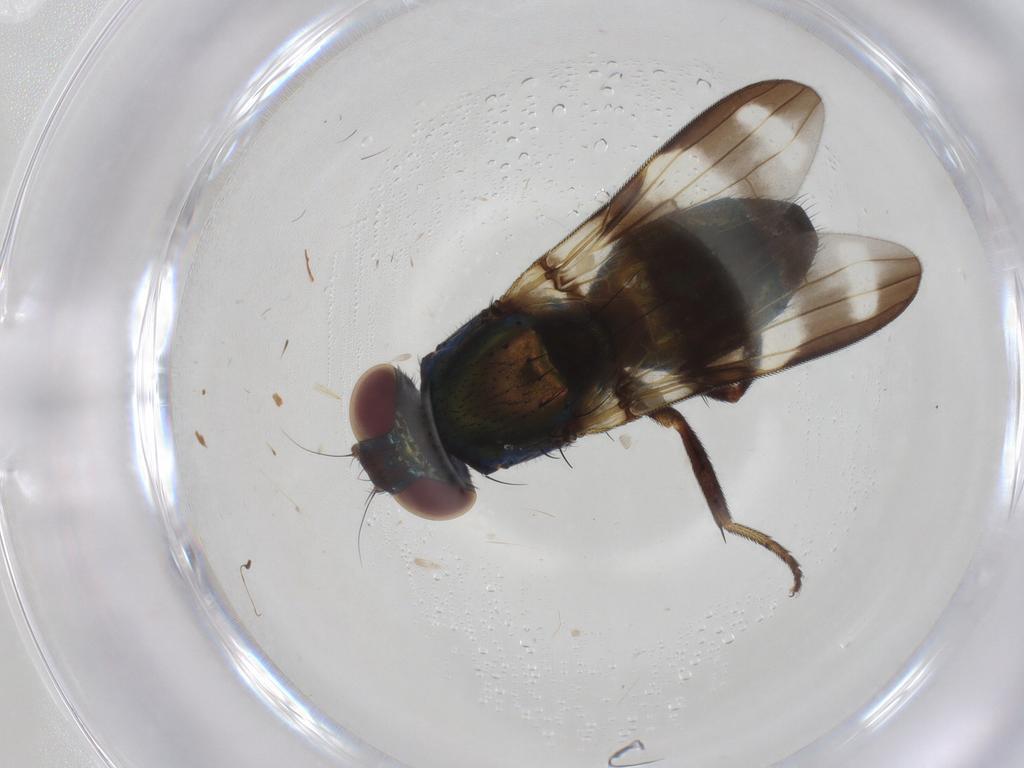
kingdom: Animalia
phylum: Arthropoda
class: Insecta
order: Diptera
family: Ulidiidae
